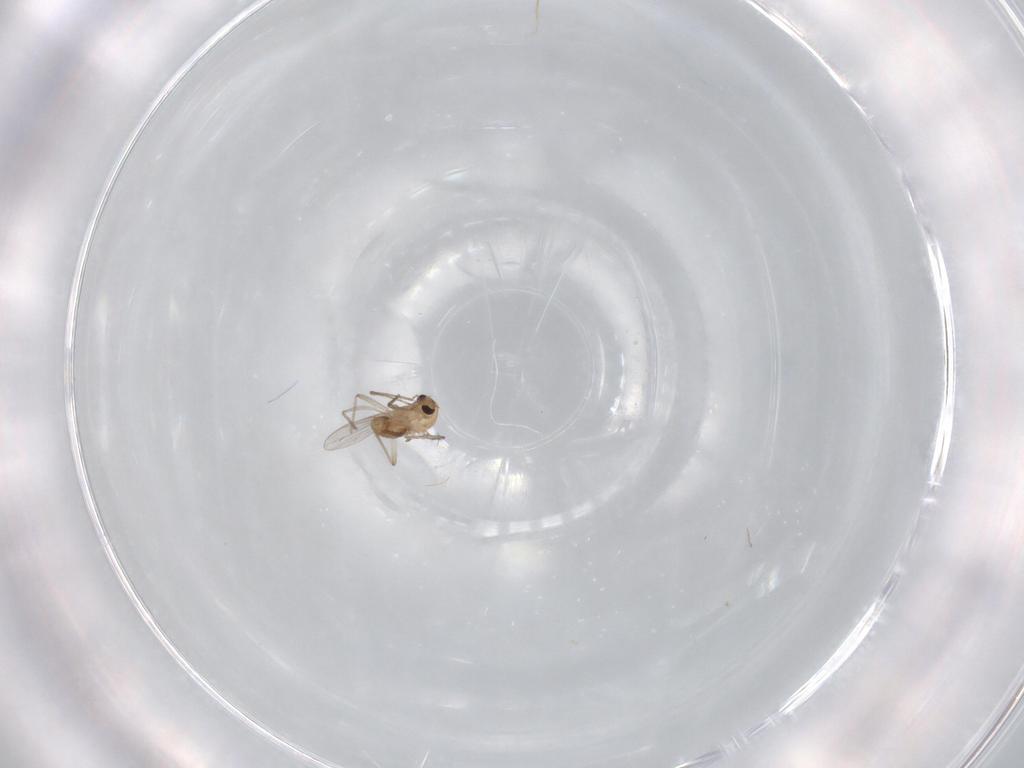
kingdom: Animalia
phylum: Arthropoda
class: Insecta
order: Diptera
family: Chironomidae
